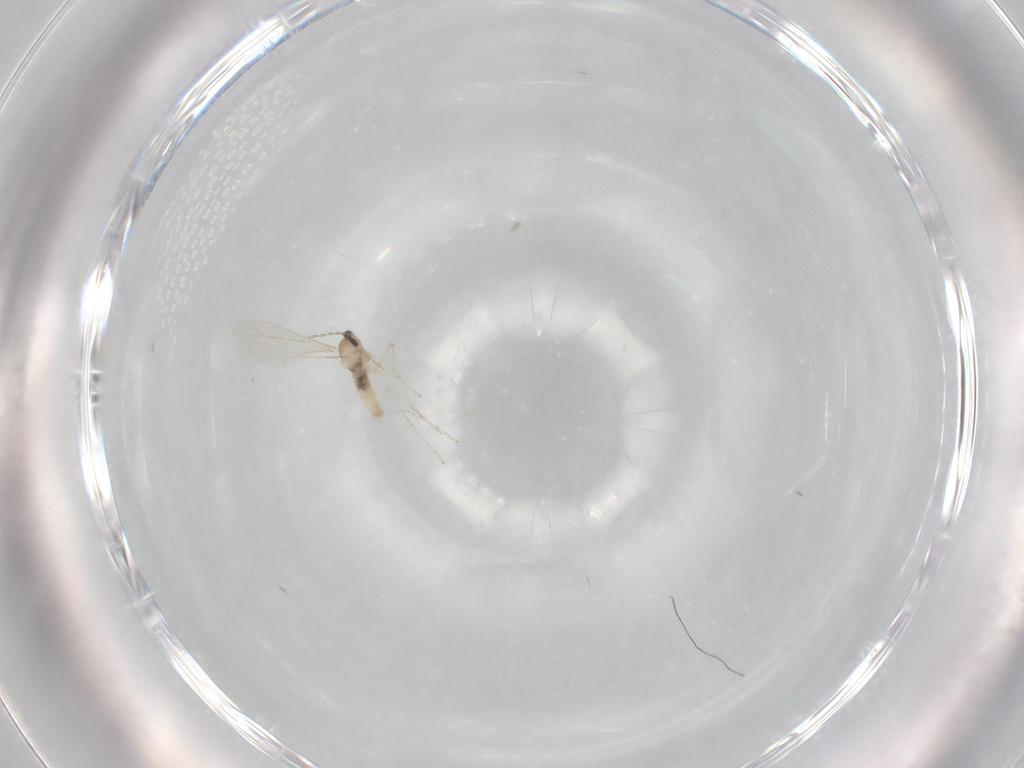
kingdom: Animalia
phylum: Arthropoda
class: Insecta
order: Diptera
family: Cecidomyiidae
